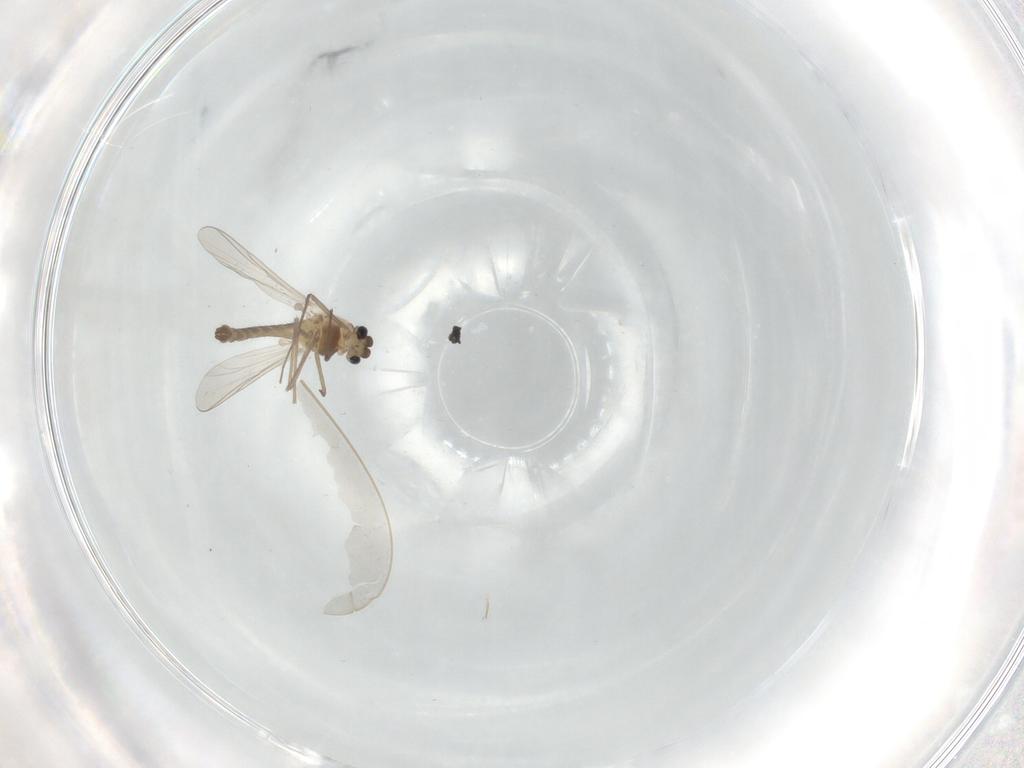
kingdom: Animalia
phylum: Arthropoda
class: Insecta
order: Diptera
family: Chironomidae
